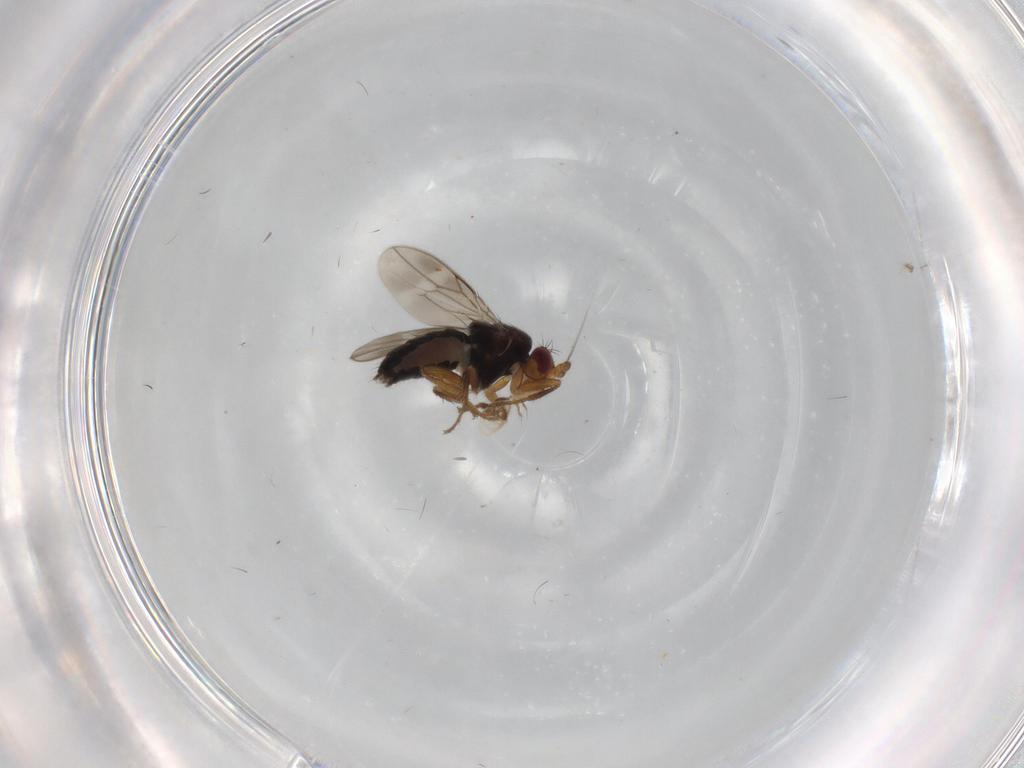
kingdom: Animalia
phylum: Arthropoda
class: Insecta
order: Diptera
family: Sphaeroceridae
